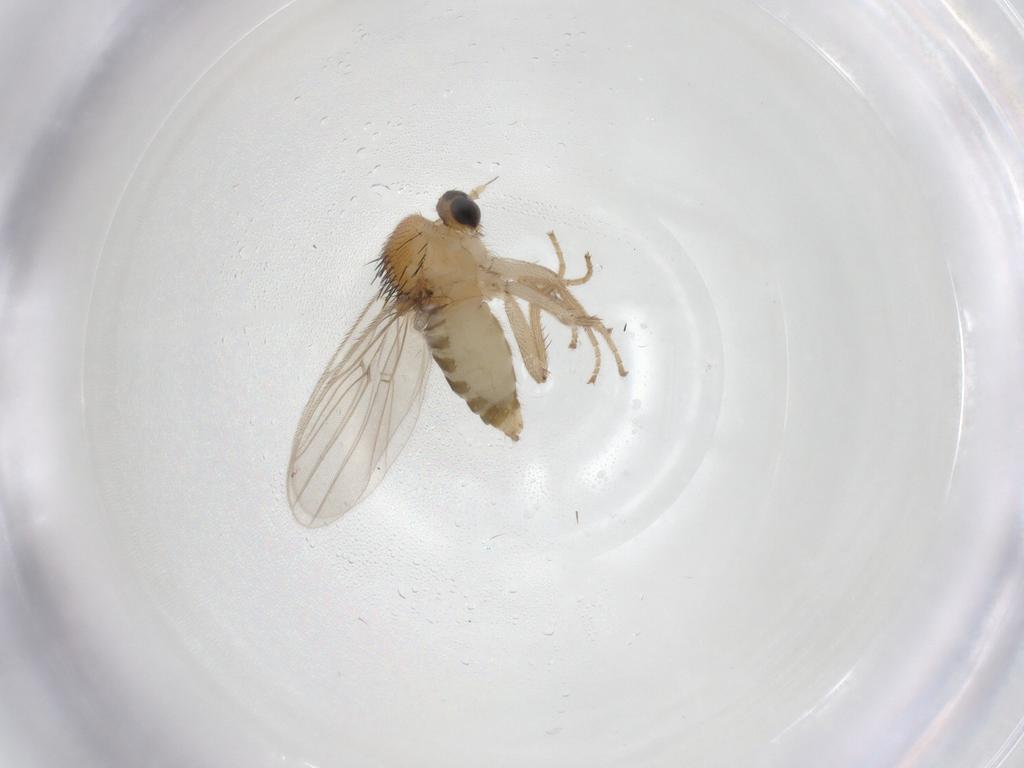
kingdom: Animalia
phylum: Arthropoda
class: Insecta
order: Diptera
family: Hybotidae
